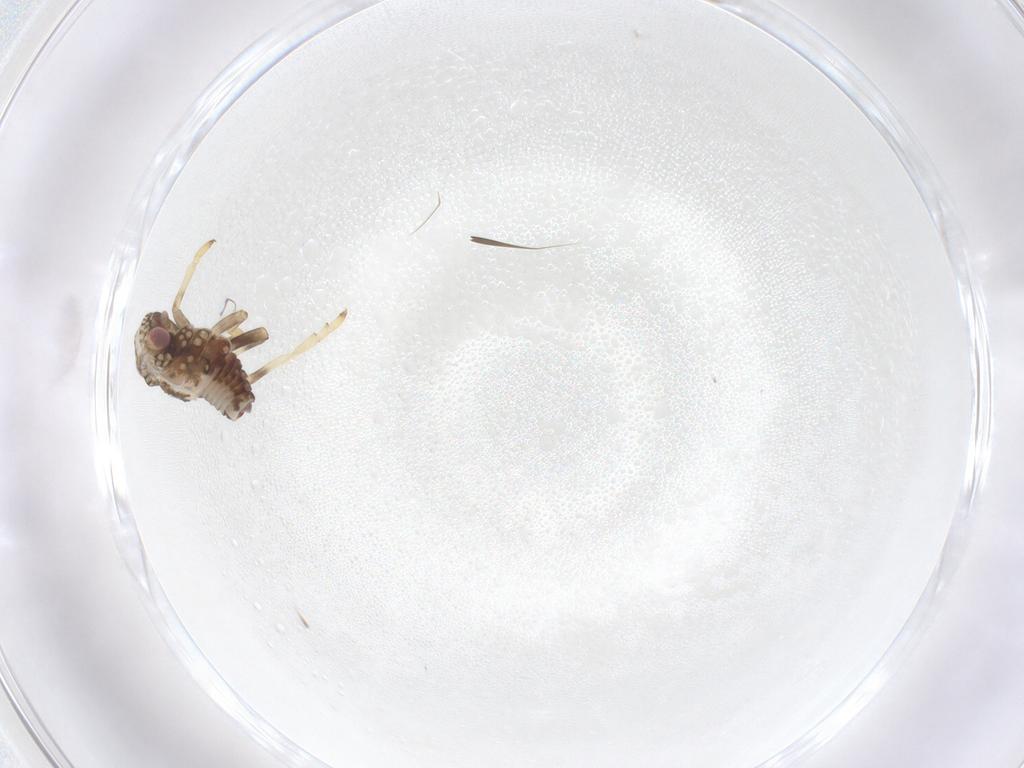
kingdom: Animalia
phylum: Arthropoda
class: Insecta
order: Hemiptera
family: Tropiduchidae
